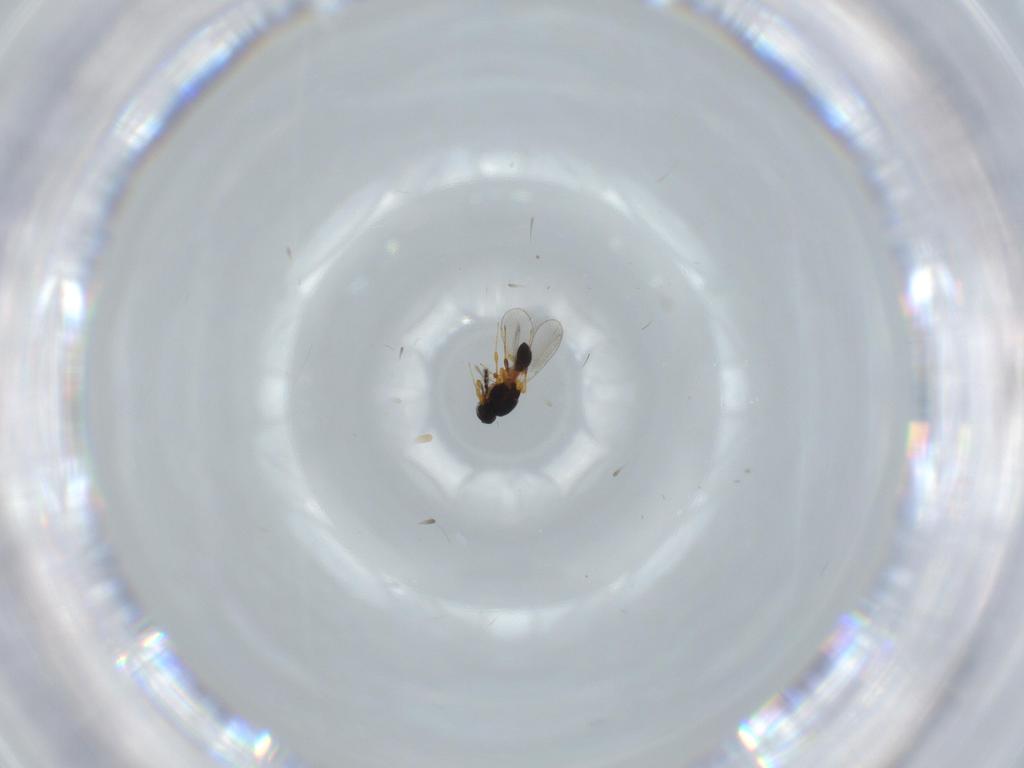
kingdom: Animalia
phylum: Arthropoda
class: Insecta
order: Hymenoptera
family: Platygastridae
